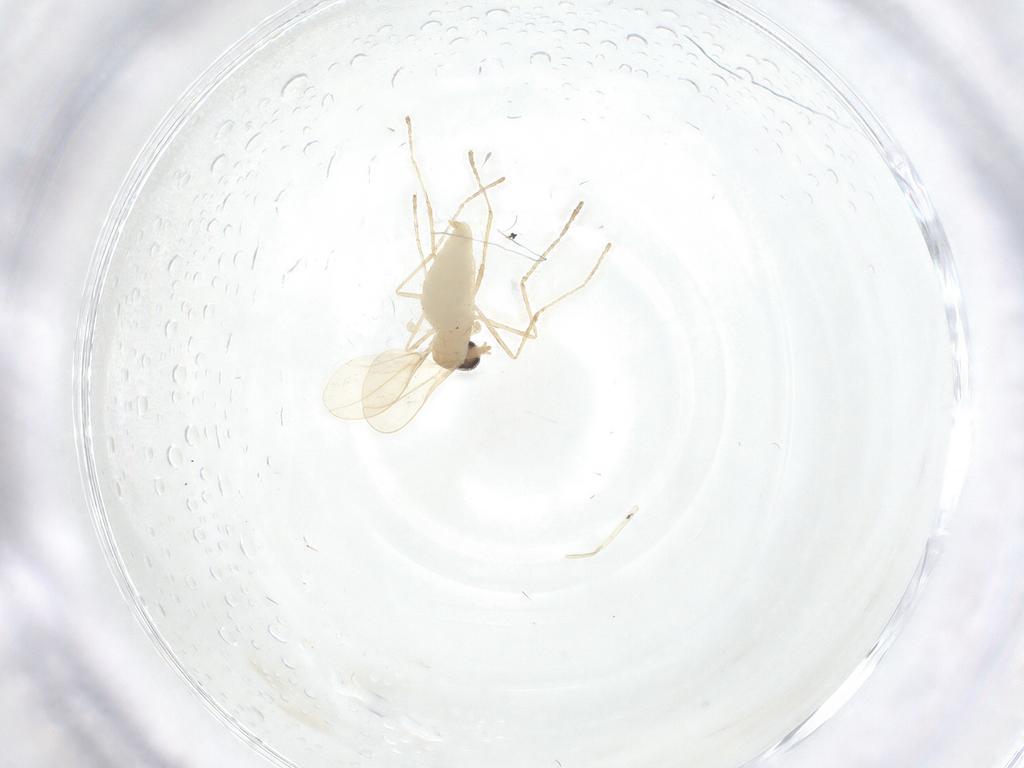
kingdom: Animalia
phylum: Arthropoda
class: Insecta
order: Diptera
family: Cecidomyiidae
